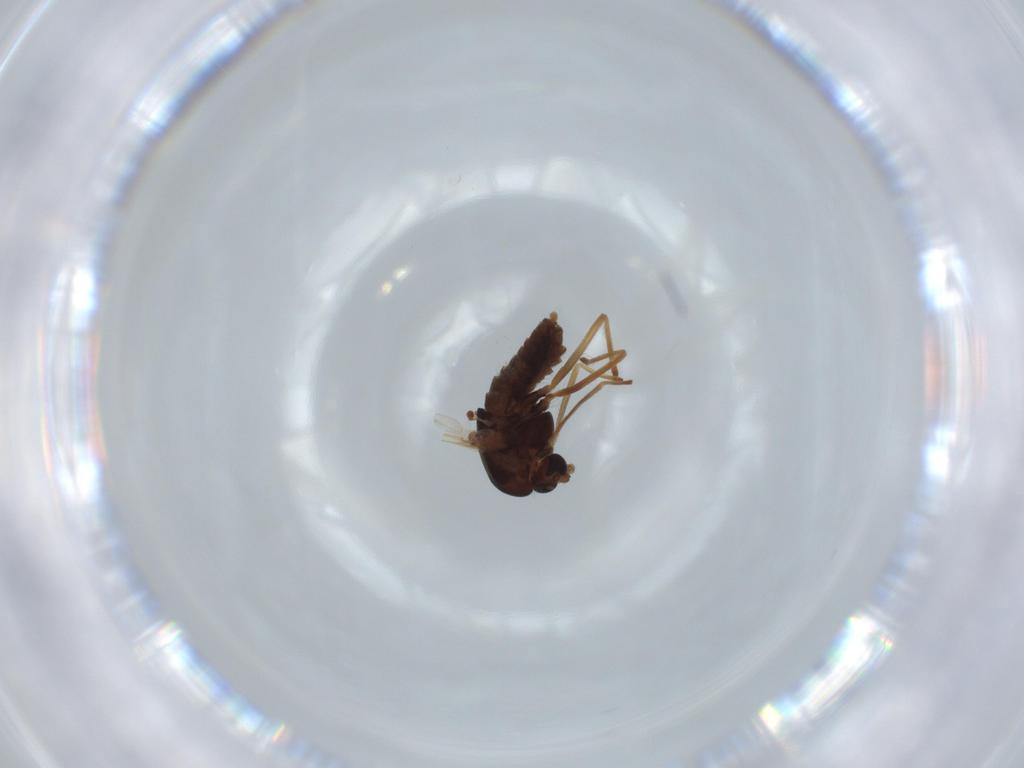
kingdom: Animalia
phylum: Arthropoda
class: Insecta
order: Diptera
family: Chironomidae
